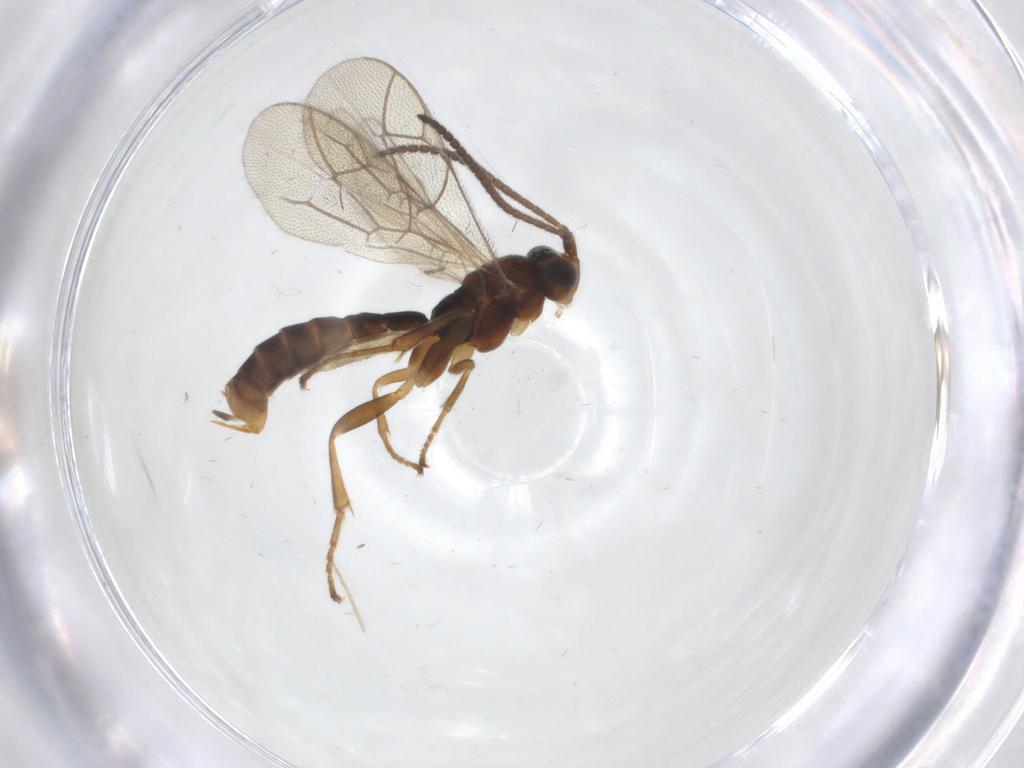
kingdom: Animalia
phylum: Arthropoda
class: Insecta
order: Hymenoptera
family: Ichneumonidae
